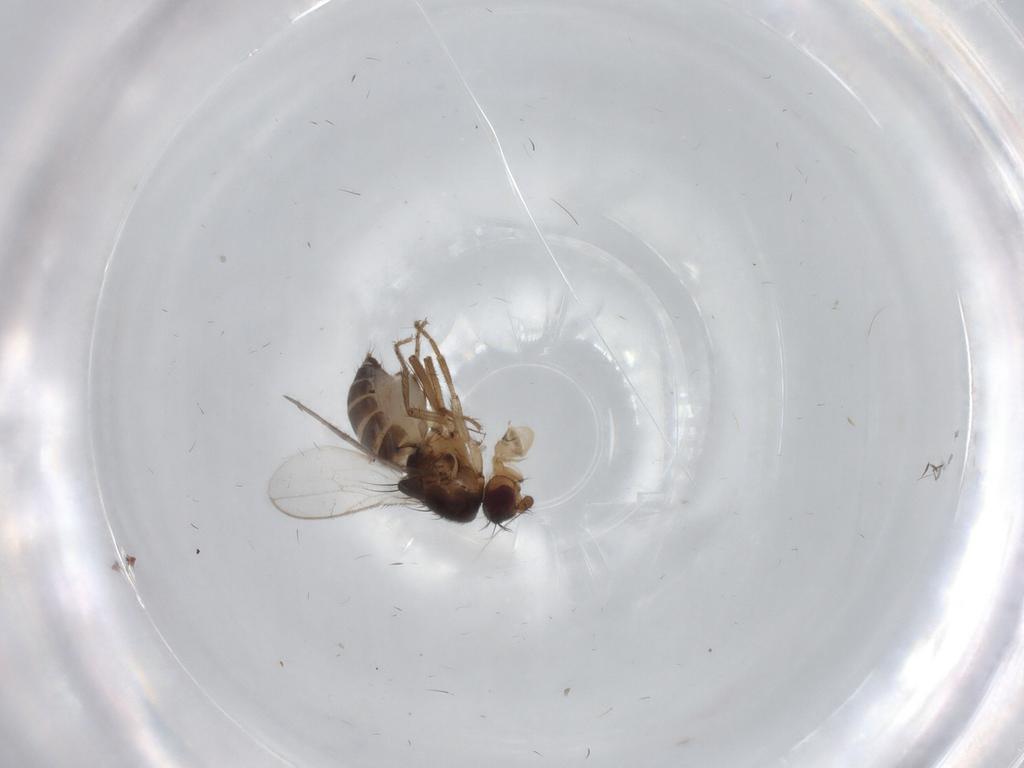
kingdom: Animalia
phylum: Arthropoda
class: Insecta
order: Diptera
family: Sphaeroceridae
